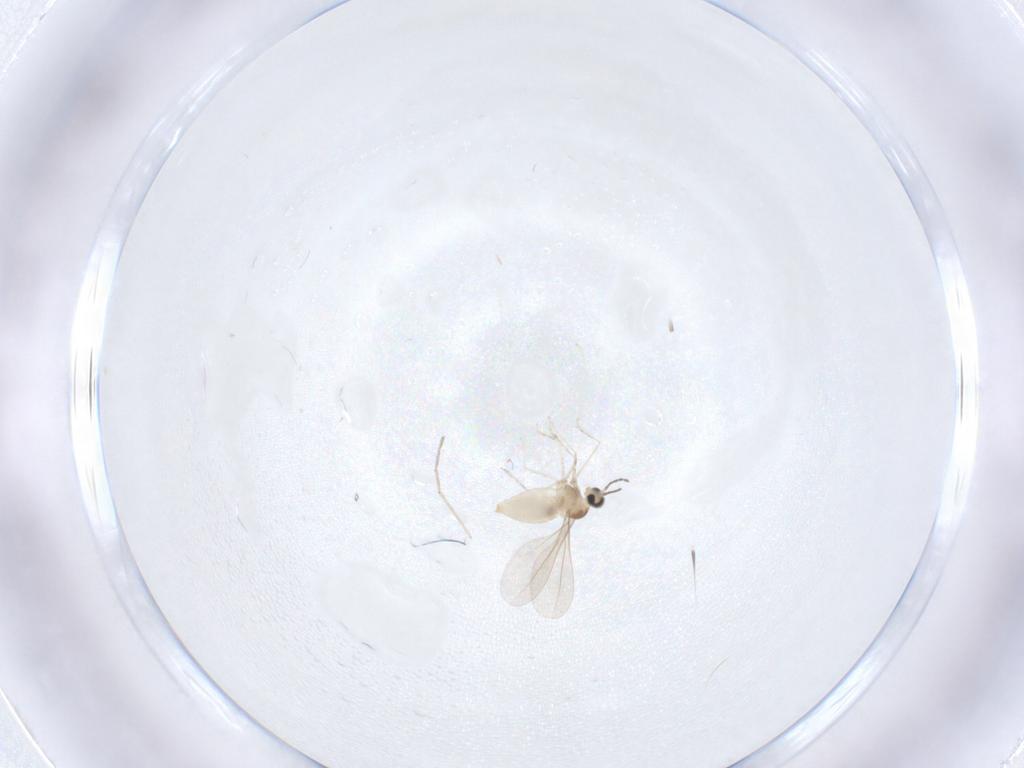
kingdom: Animalia
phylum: Arthropoda
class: Insecta
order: Diptera
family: Cecidomyiidae
